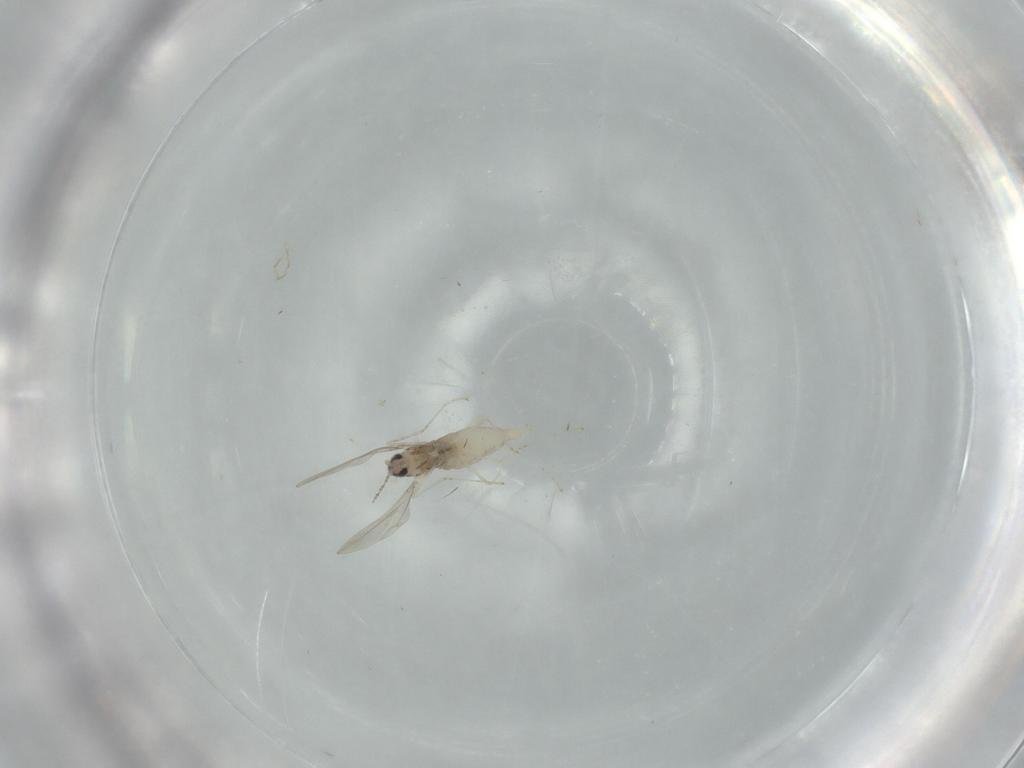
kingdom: Animalia
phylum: Arthropoda
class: Insecta
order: Diptera
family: Cecidomyiidae
